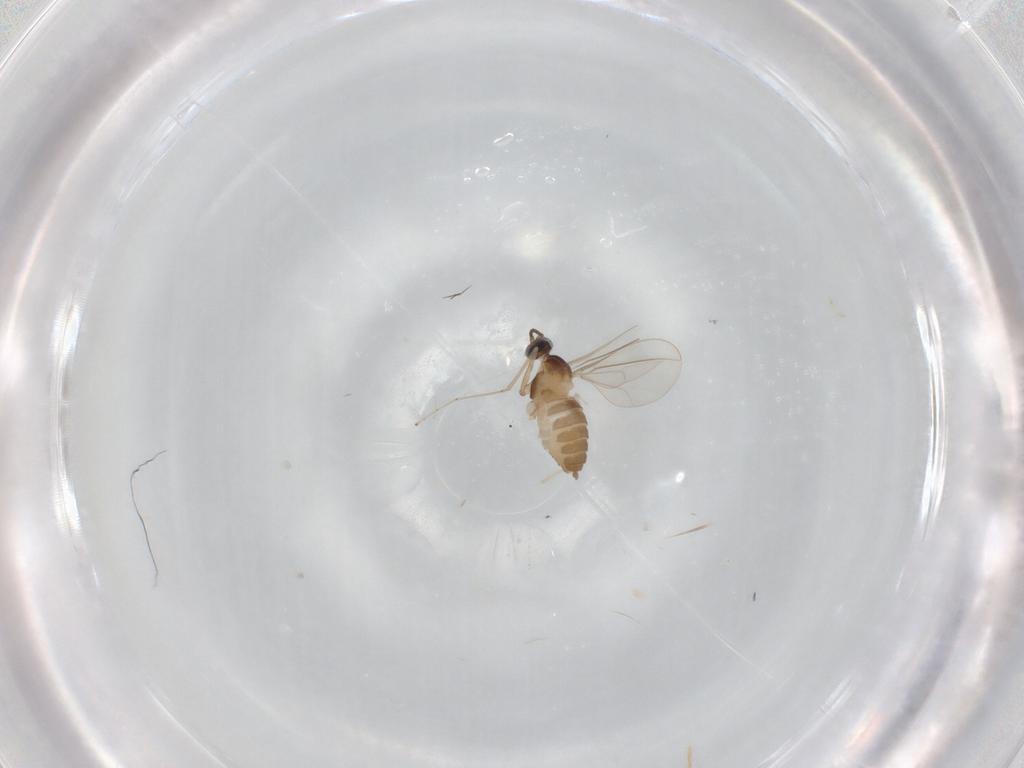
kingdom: Animalia
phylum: Arthropoda
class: Insecta
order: Diptera
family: Cecidomyiidae
